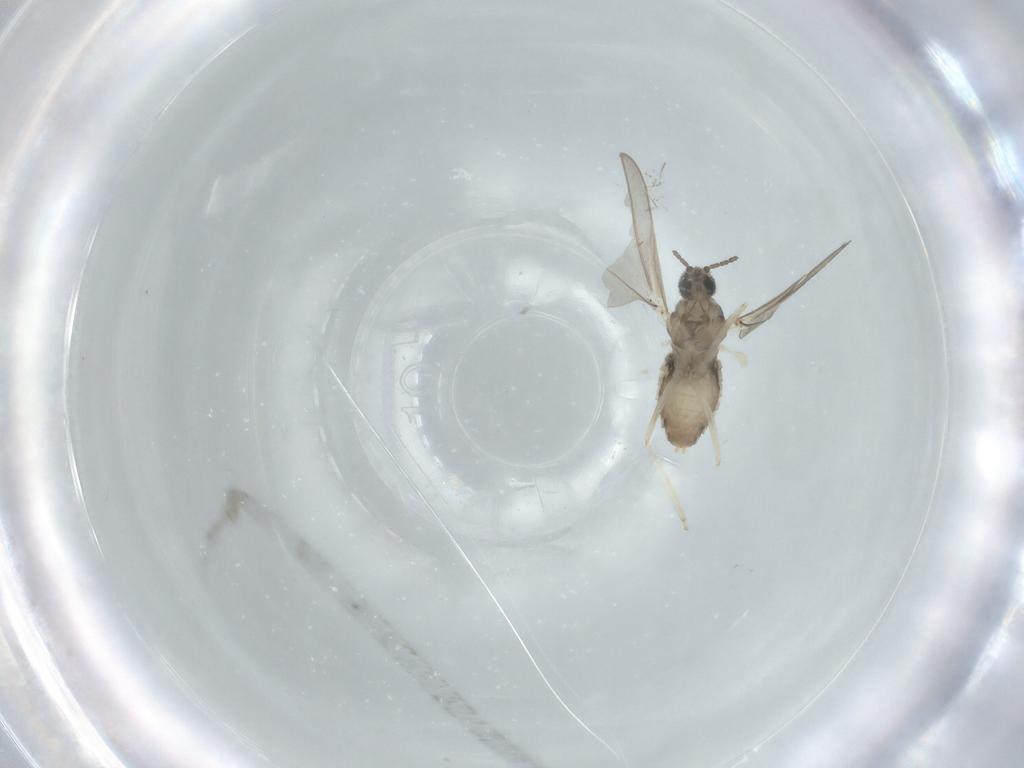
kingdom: Animalia
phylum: Arthropoda
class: Insecta
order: Diptera
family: Cecidomyiidae
